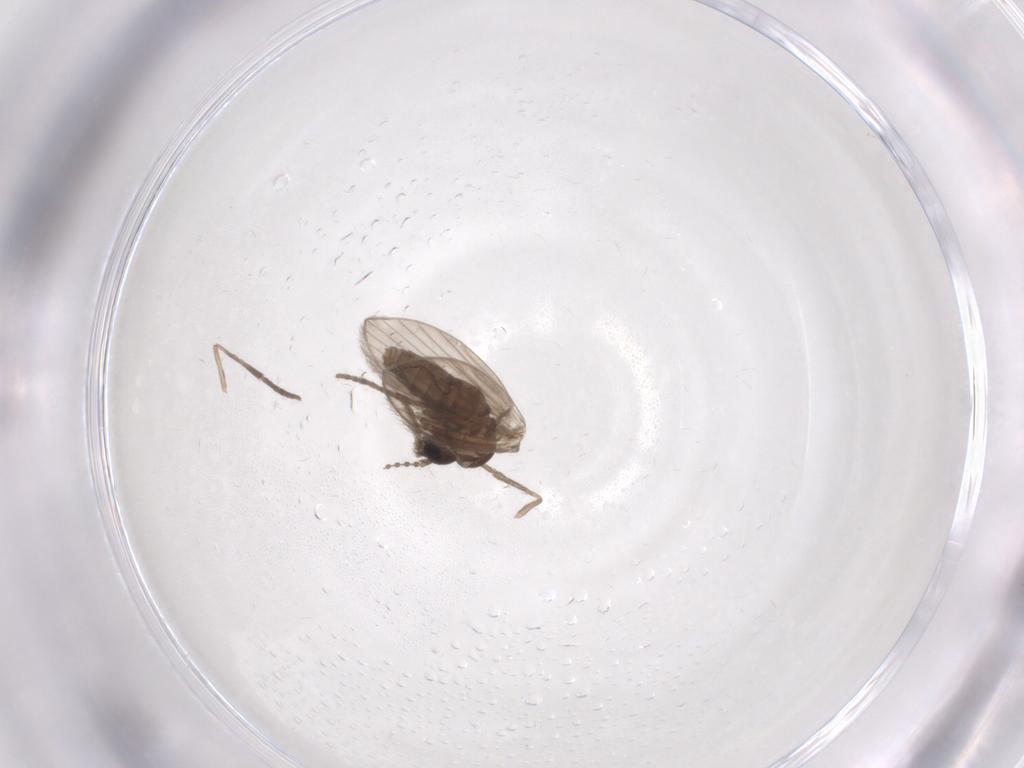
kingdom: Animalia
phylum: Arthropoda
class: Insecta
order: Diptera
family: Psychodidae
